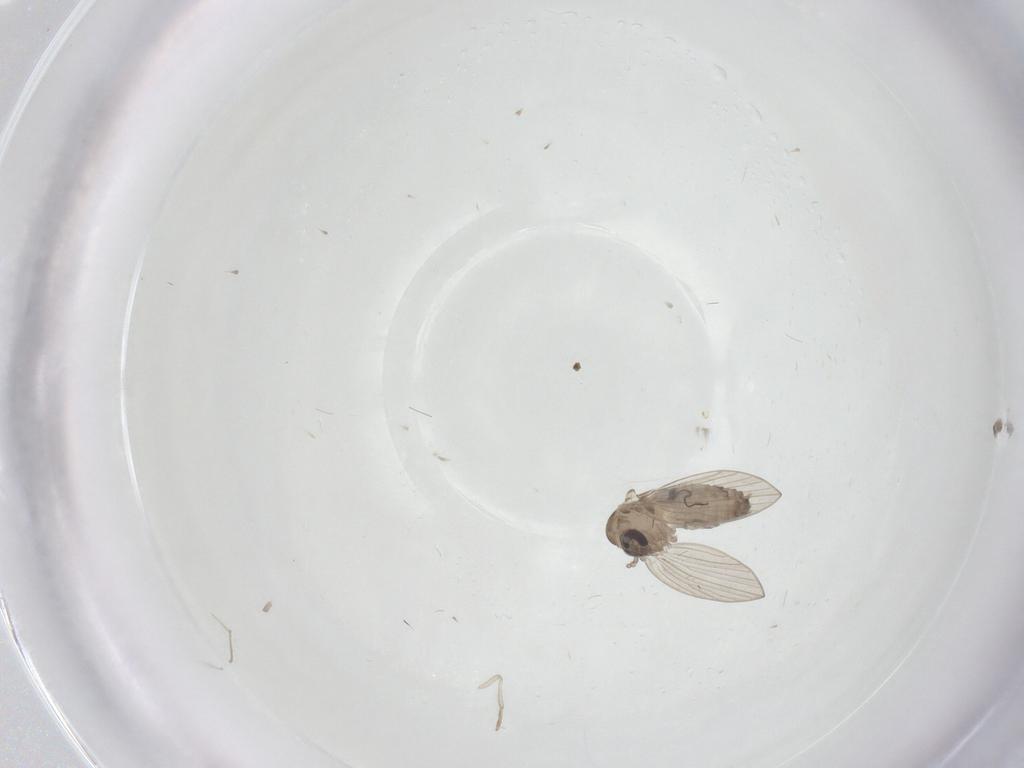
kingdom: Animalia
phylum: Arthropoda
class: Insecta
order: Diptera
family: Psychodidae
